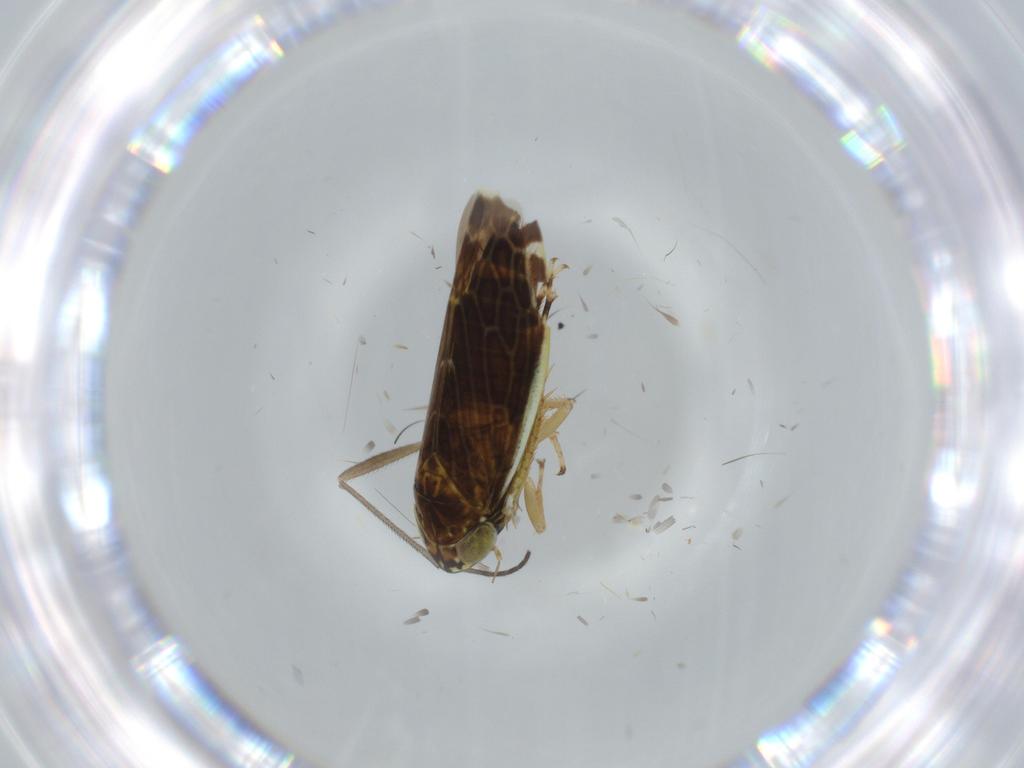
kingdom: Animalia
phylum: Arthropoda
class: Insecta
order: Hemiptera
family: Cicadellidae
